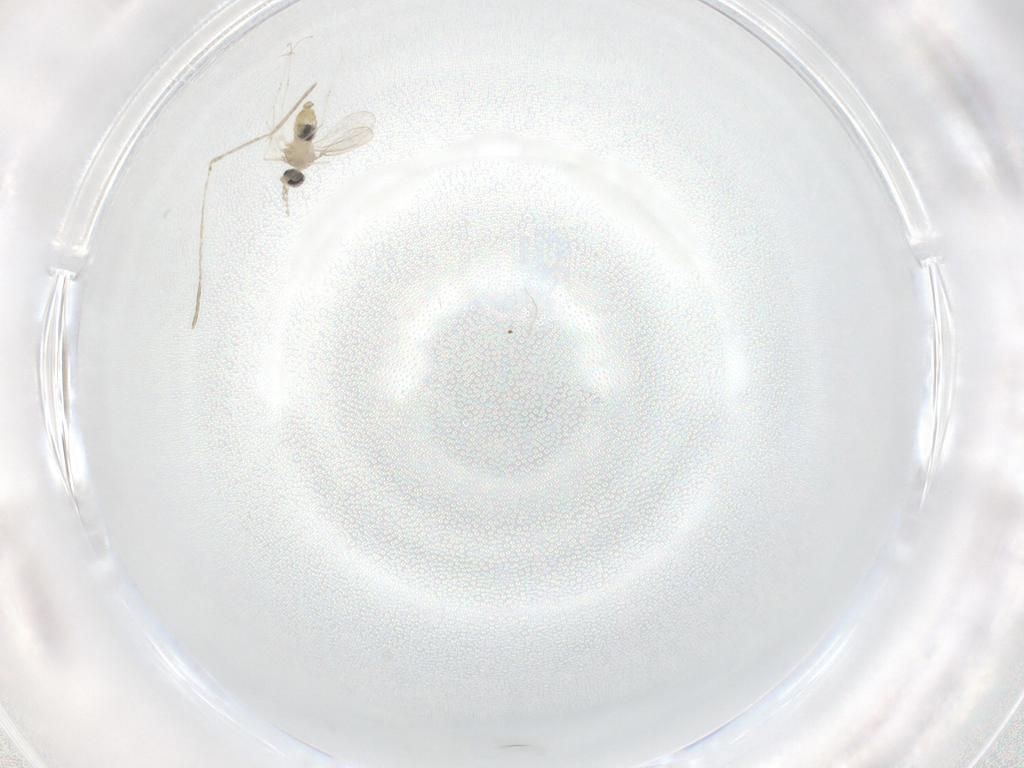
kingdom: Animalia
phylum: Arthropoda
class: Insecta
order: Diptera
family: Cecidomyiidae
